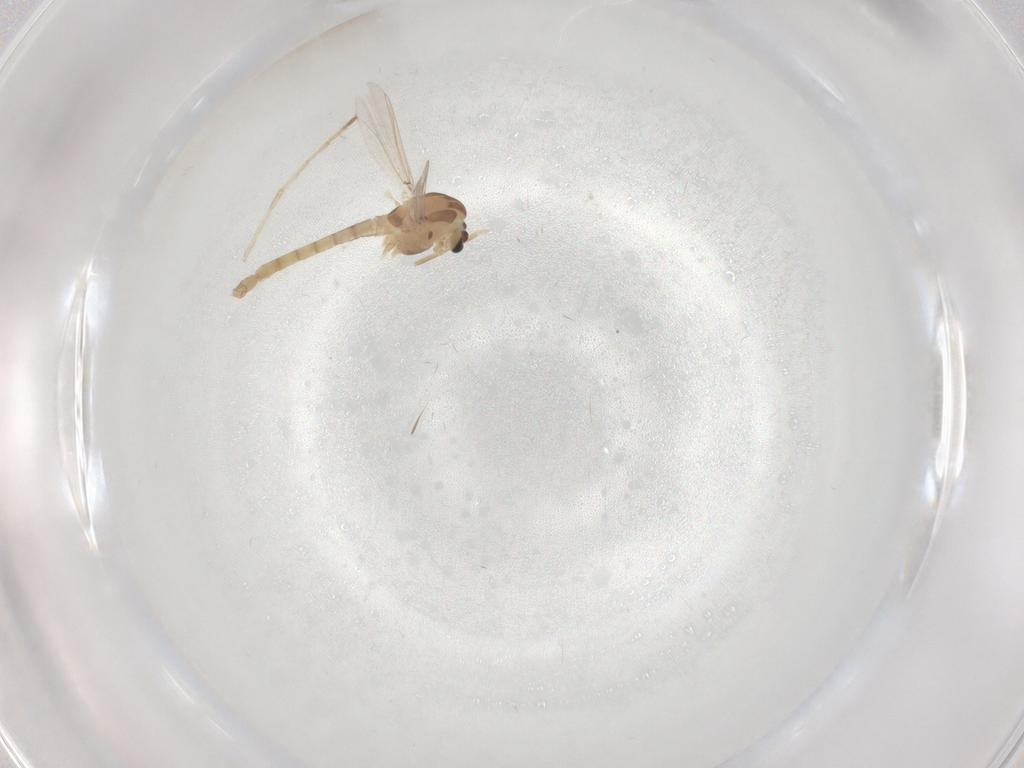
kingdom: Animalia
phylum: Arthropoda
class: Insecta
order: Diptera
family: Chironomidae
